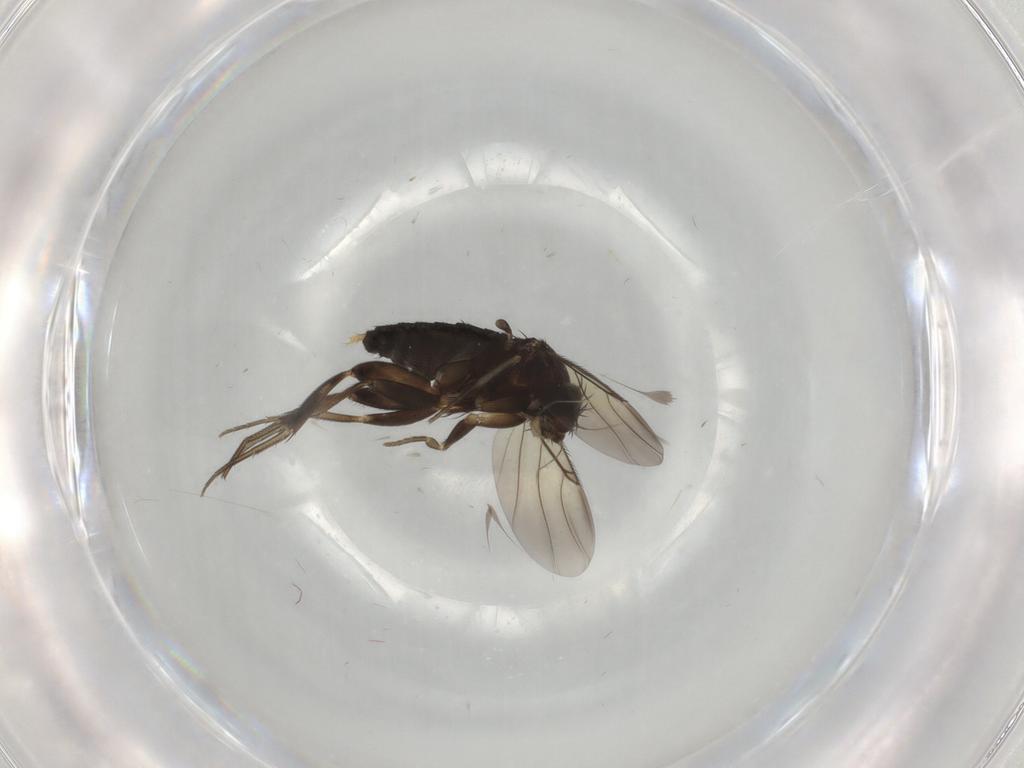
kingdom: Animalia
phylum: Arthropoda
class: Insecta
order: Diptera
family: Phoridae
